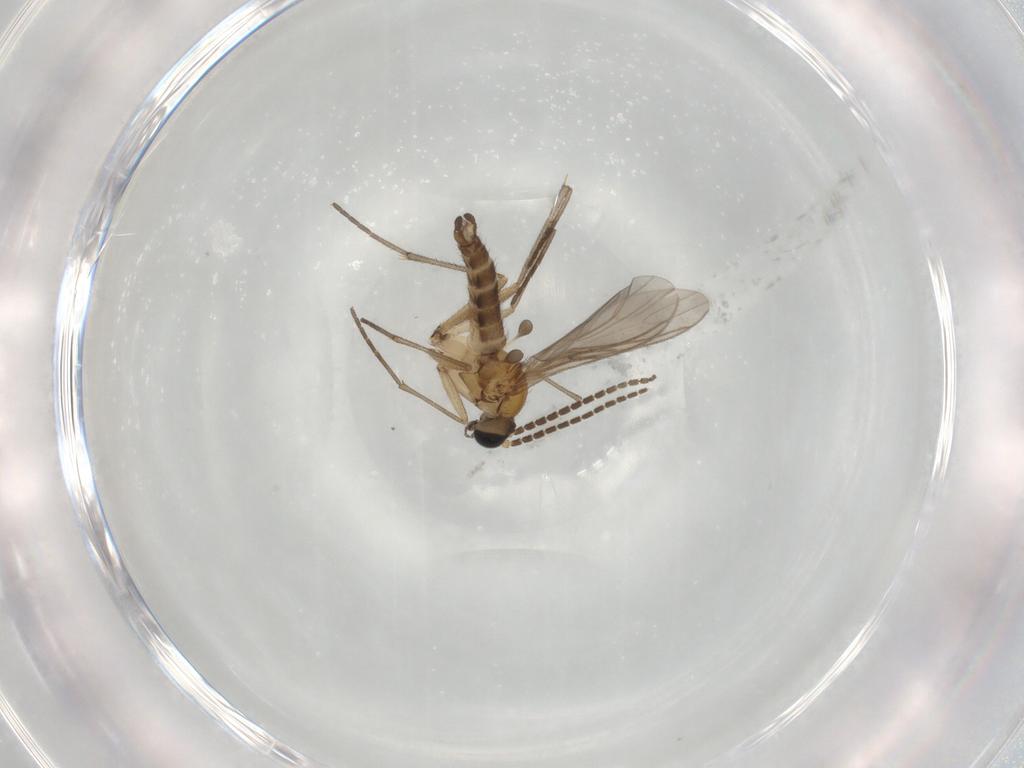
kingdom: Animalia
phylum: Arthropoda
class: Insecta
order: Diptera
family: Sciaridae
